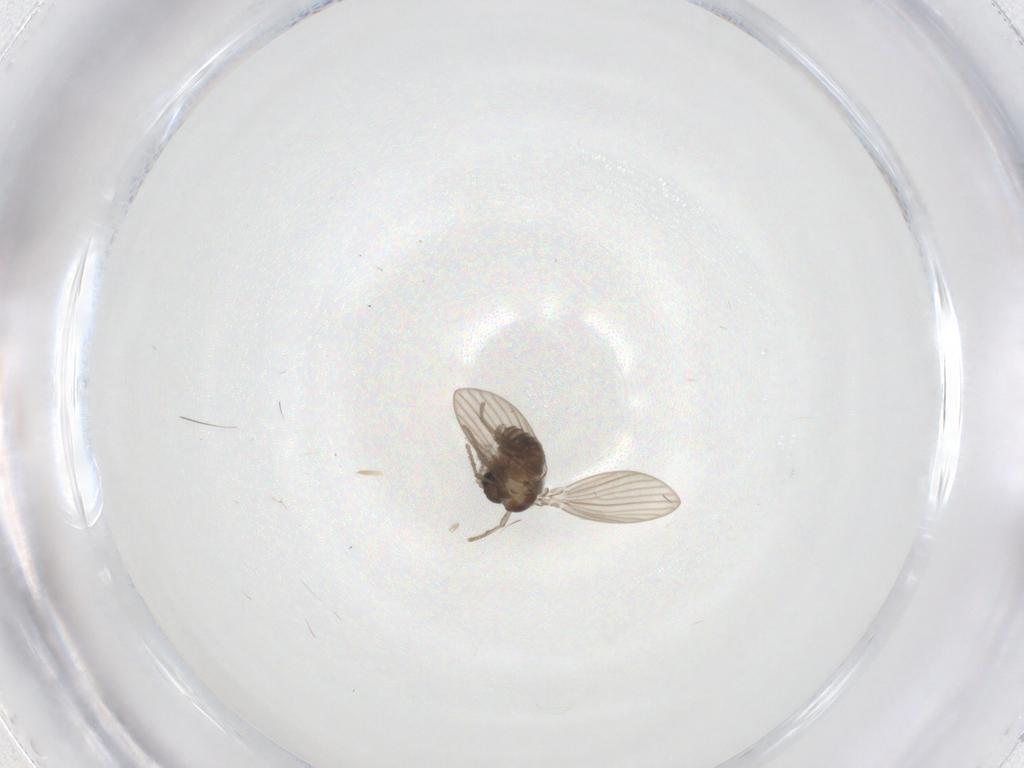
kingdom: Animalia
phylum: Arthropoda
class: Insecta
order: Diptera
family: Psychodidae
